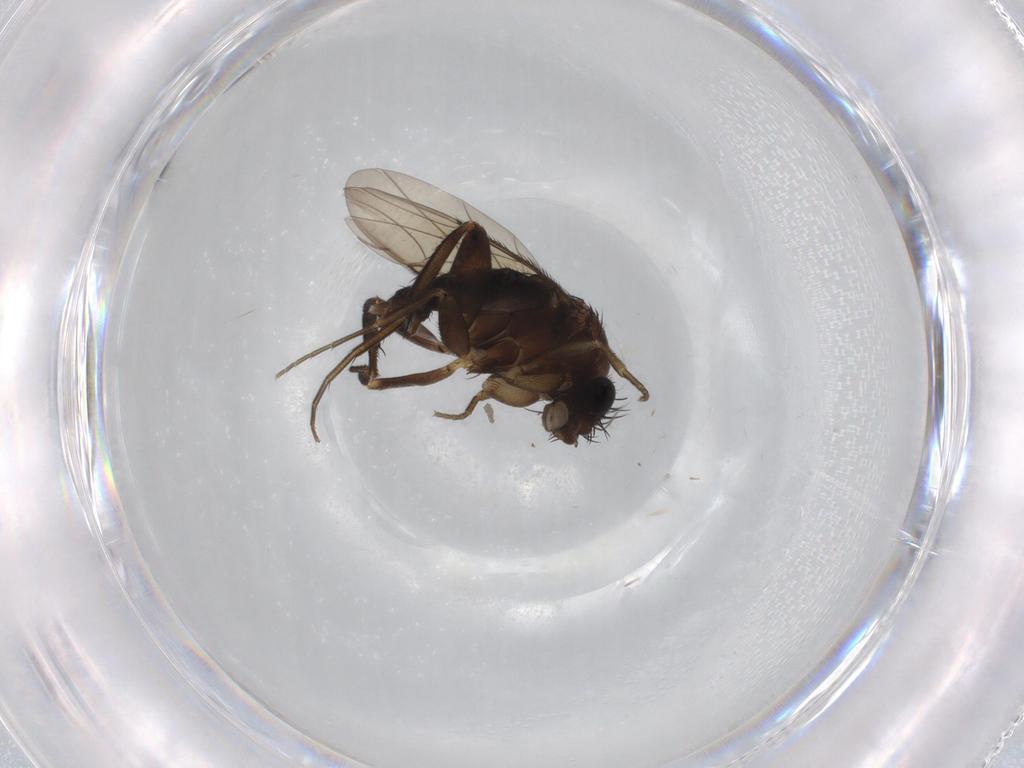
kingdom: Animalia
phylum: Arthropoda
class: Insecta
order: Diptera
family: Phoridae
